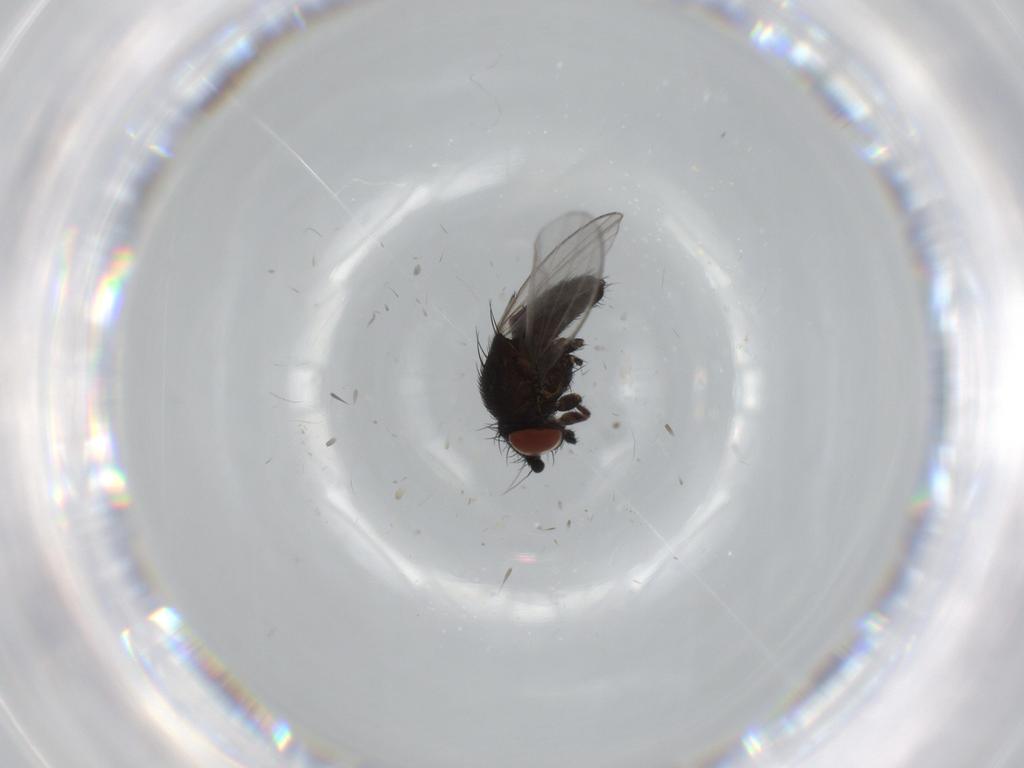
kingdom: Animalia
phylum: Arthropoda
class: Insecta
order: Diptera
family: Milichiidae
